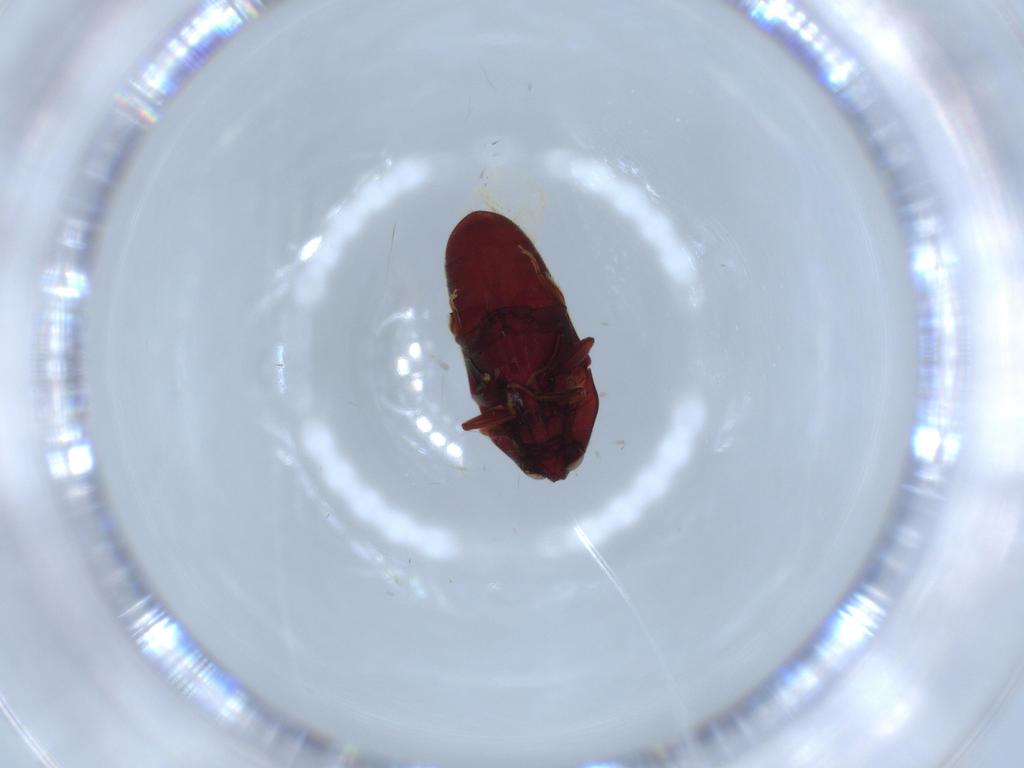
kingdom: Animalia
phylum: Arthropoda
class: Insecta
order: Coleoptera
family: Throscidae
